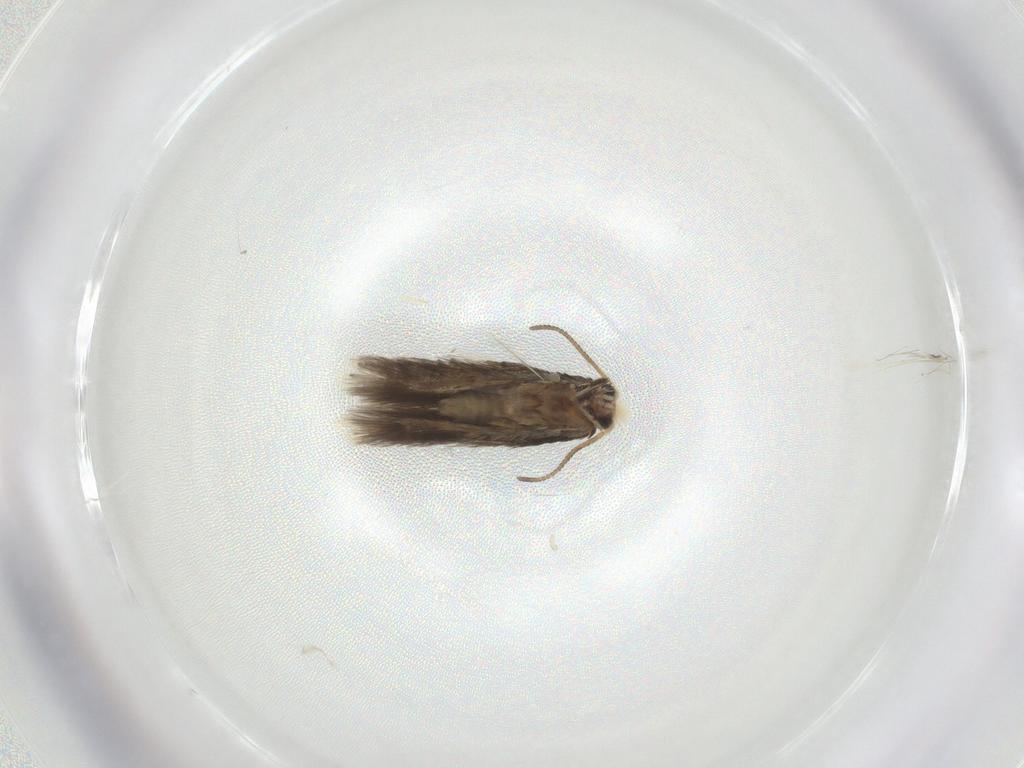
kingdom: Animalia
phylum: Arthropoda
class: Insecta
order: Lepidoptera
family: Nepticulidae
